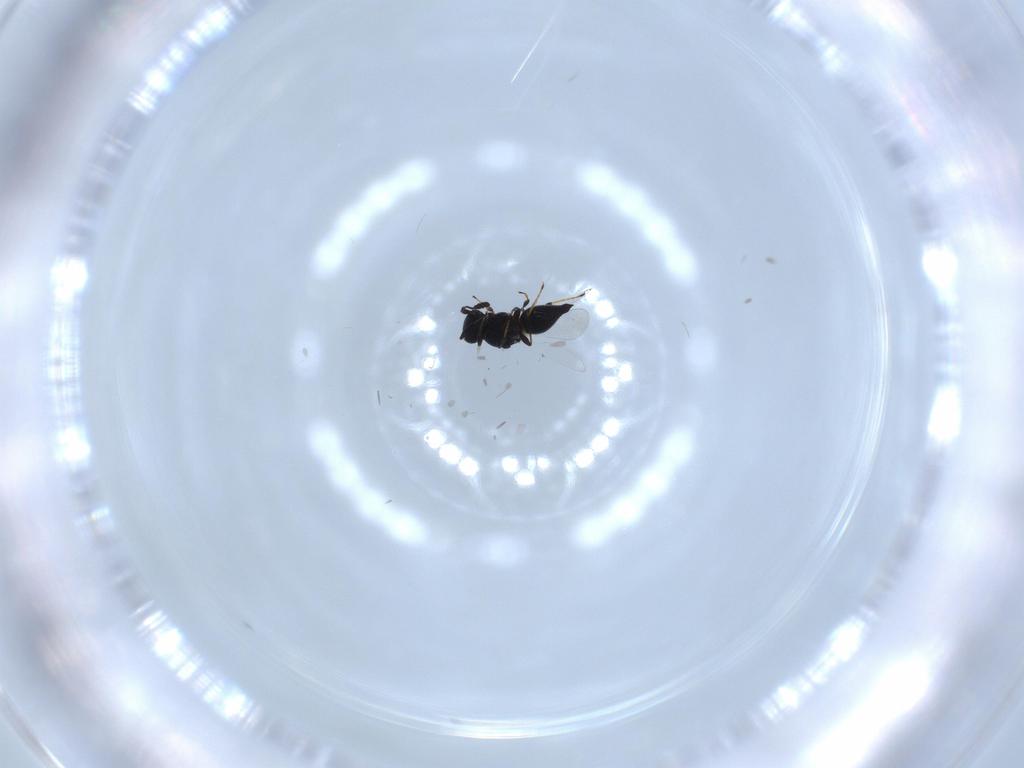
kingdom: Animalia
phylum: Arthropoda
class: Insecta
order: Hymenoptera
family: Platygastridae
